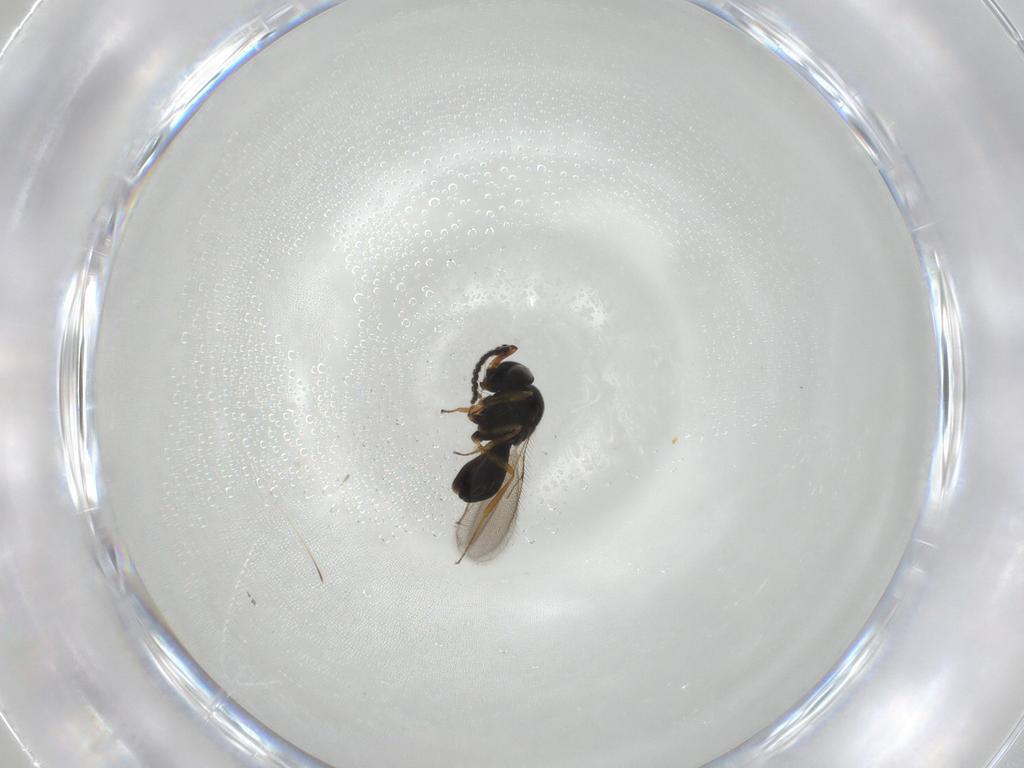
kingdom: Animalia
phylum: Arthropoda
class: Insecta
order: Hymenoptera
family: Scelionidae
